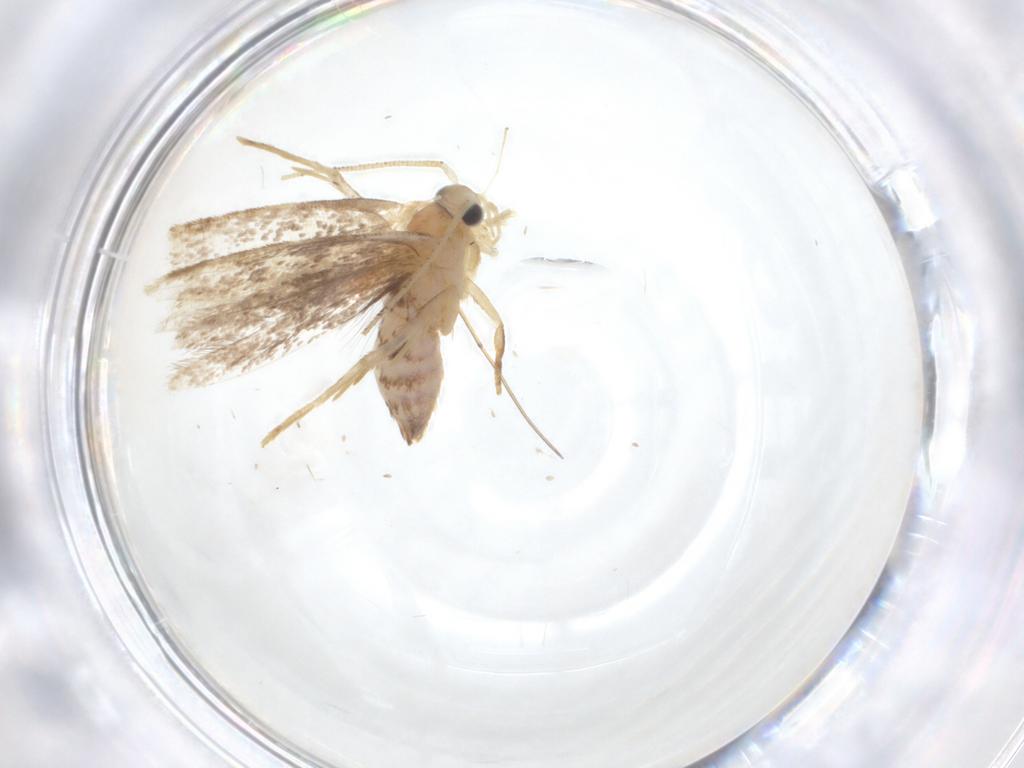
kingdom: Animalia
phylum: Arthropoda
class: Insecta
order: Lepidoptera
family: Dryadaulidae
